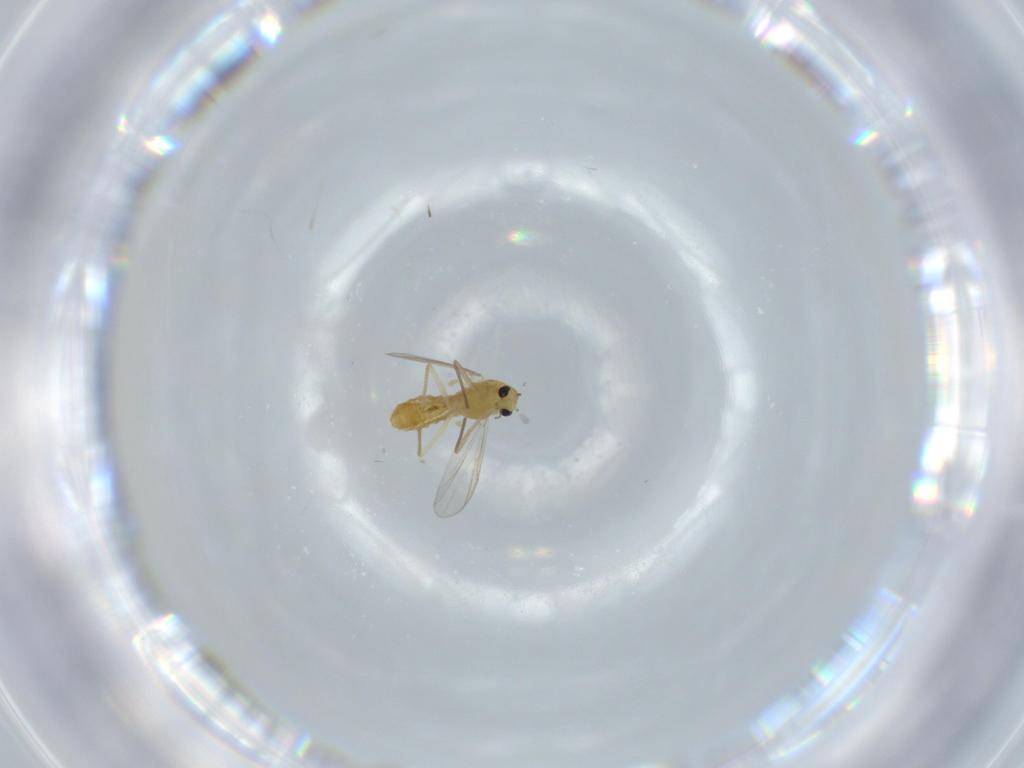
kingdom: Animalia
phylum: Arthropoda
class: Insecta
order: Diptera
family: Chironomidae
